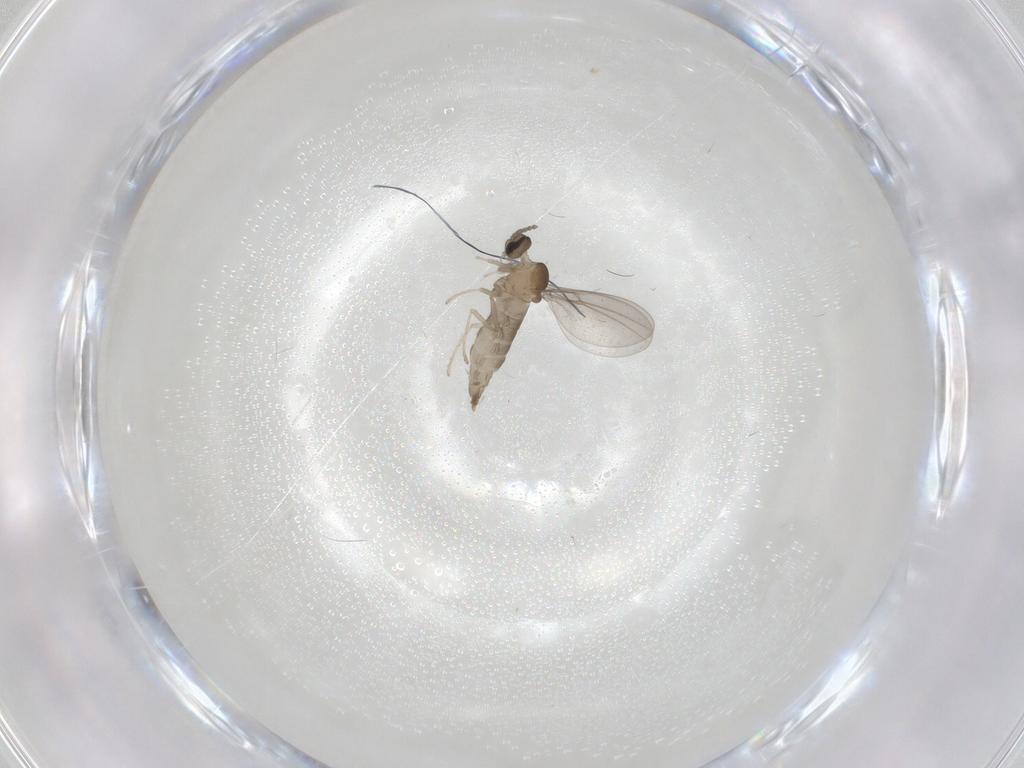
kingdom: Animalia
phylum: Arthropoda
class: Insecta
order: Diptera
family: Cecidomyiidae
